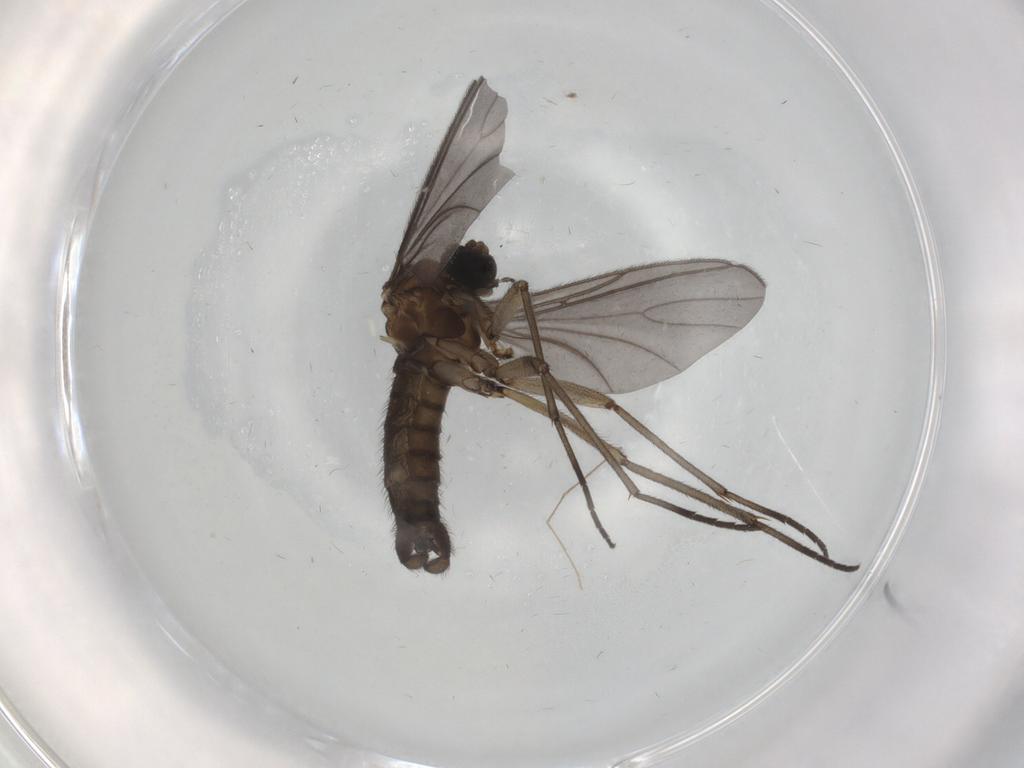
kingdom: Animalia
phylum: Arthropoda
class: Insecta
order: Diptera
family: Sciaridae
